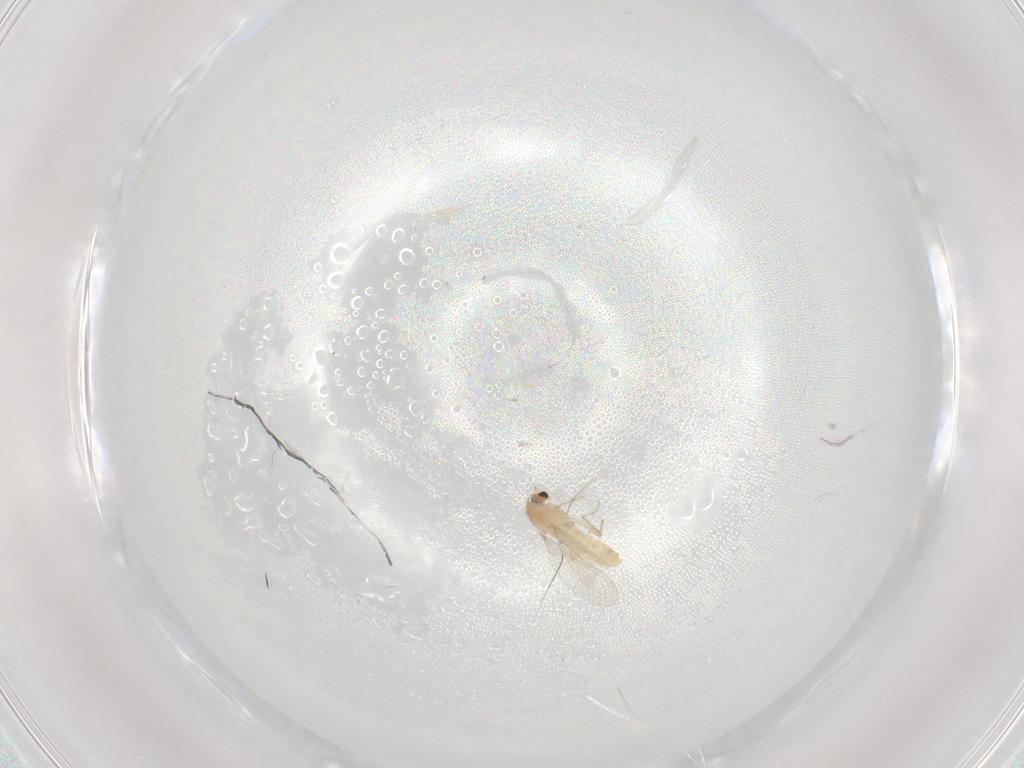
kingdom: Animalia
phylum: Arthropoda
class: Insecta
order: Diptera
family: Chironomidae
